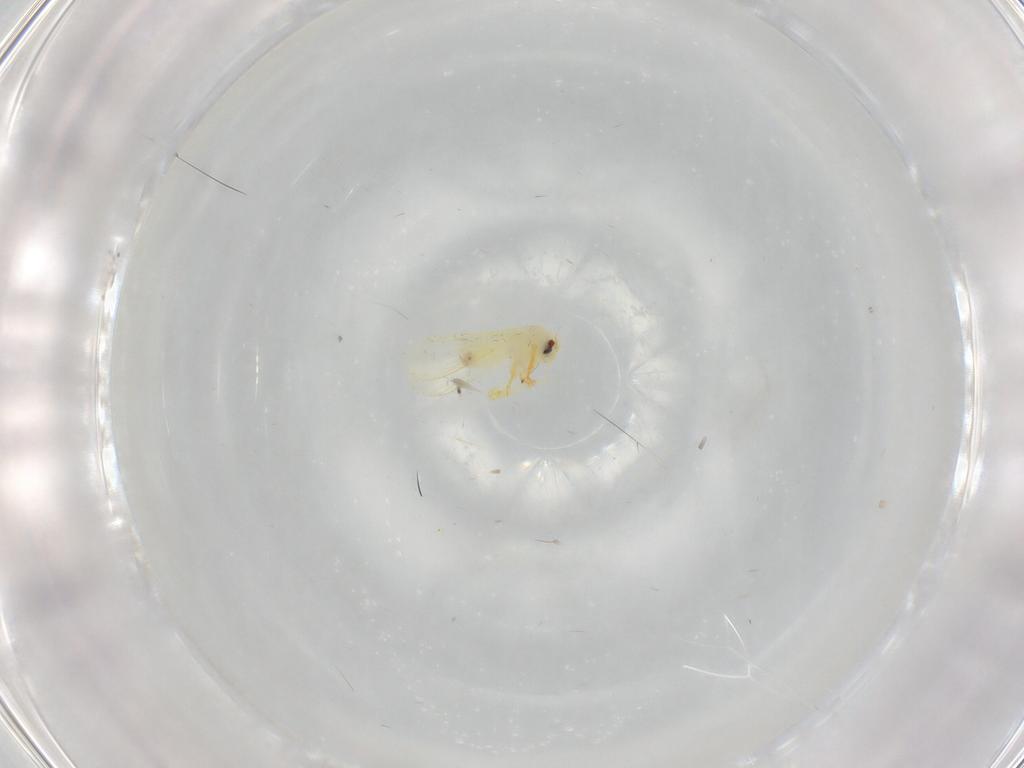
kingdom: Animalia
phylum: Arthropoda
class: Insecta
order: Hemiptera
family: Aleyrodidae
